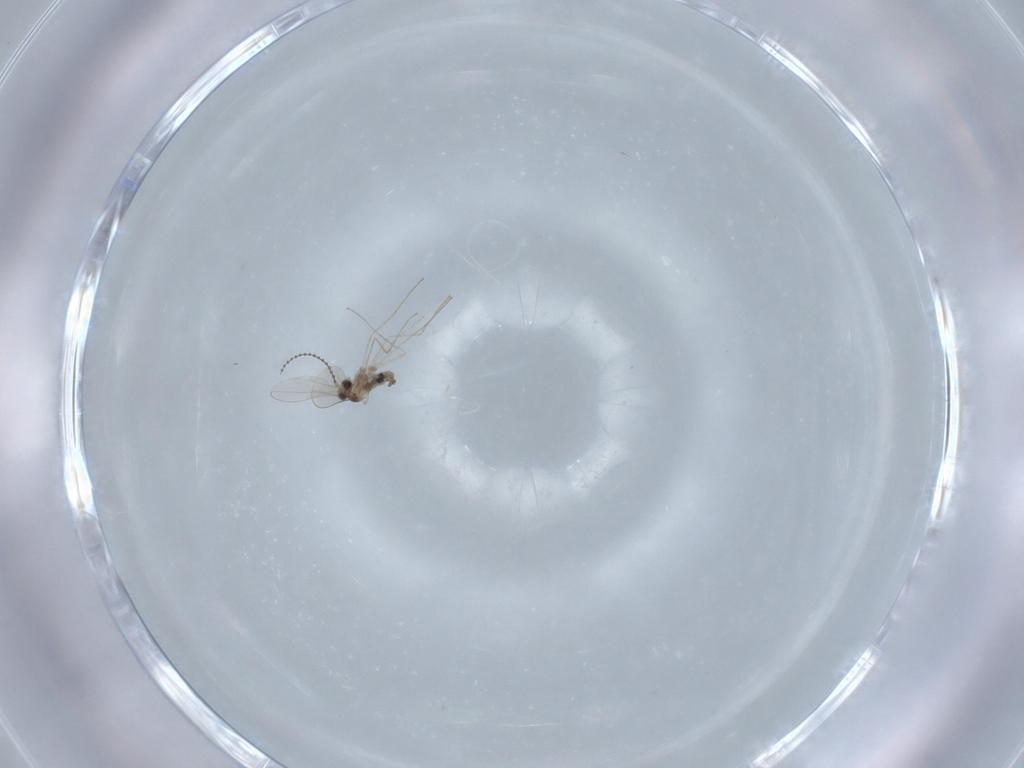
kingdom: Animalia
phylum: Arthropoda
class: Insecta
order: Diptera
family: Cecidomyiidae
